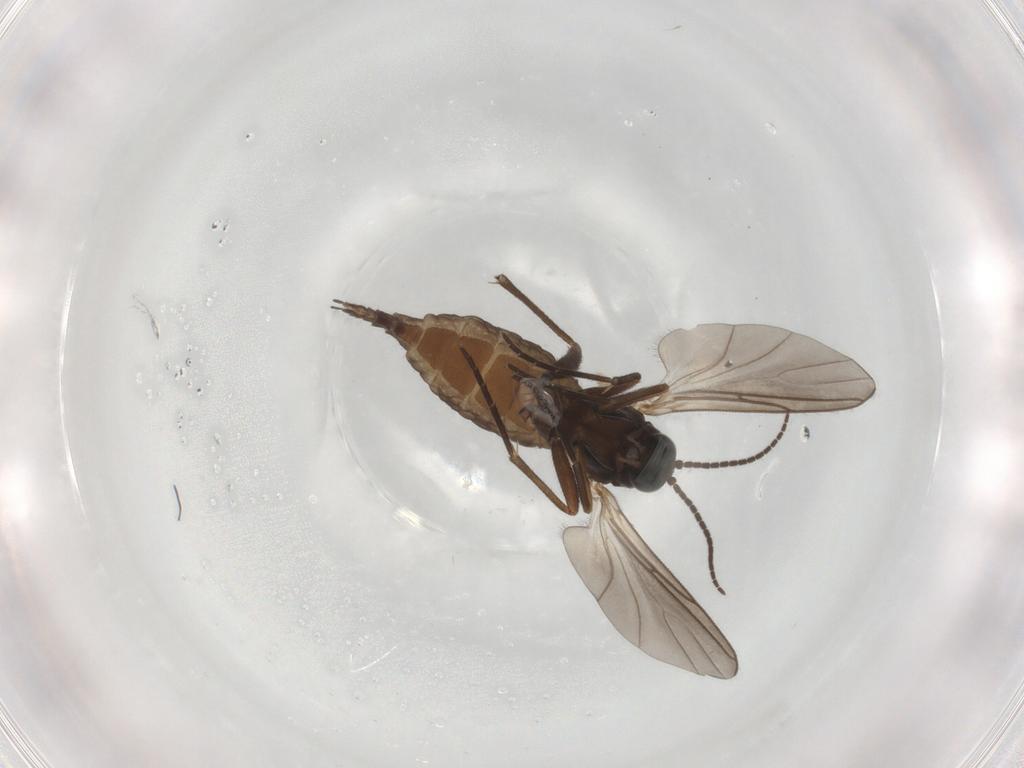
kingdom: Animalia
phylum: Arthropoda
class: Insecta
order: Diptera
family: Sciaridae
